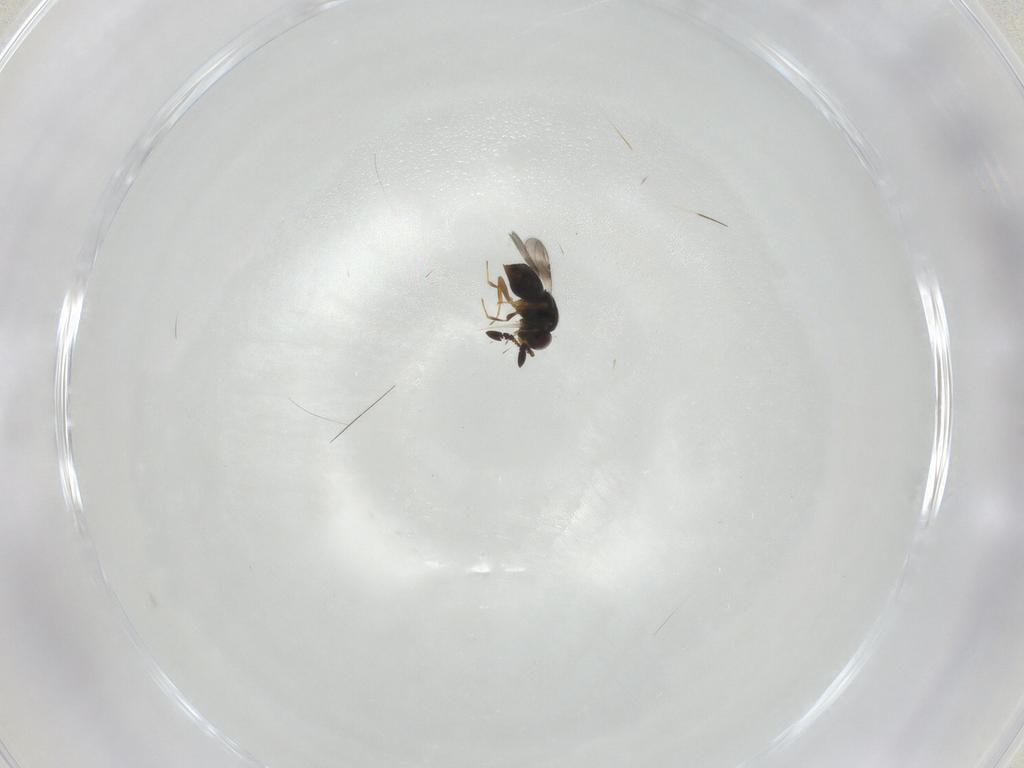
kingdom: Animalia
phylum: Arthropoda
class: Insecta
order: Diptera
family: Cecidomyiidae
